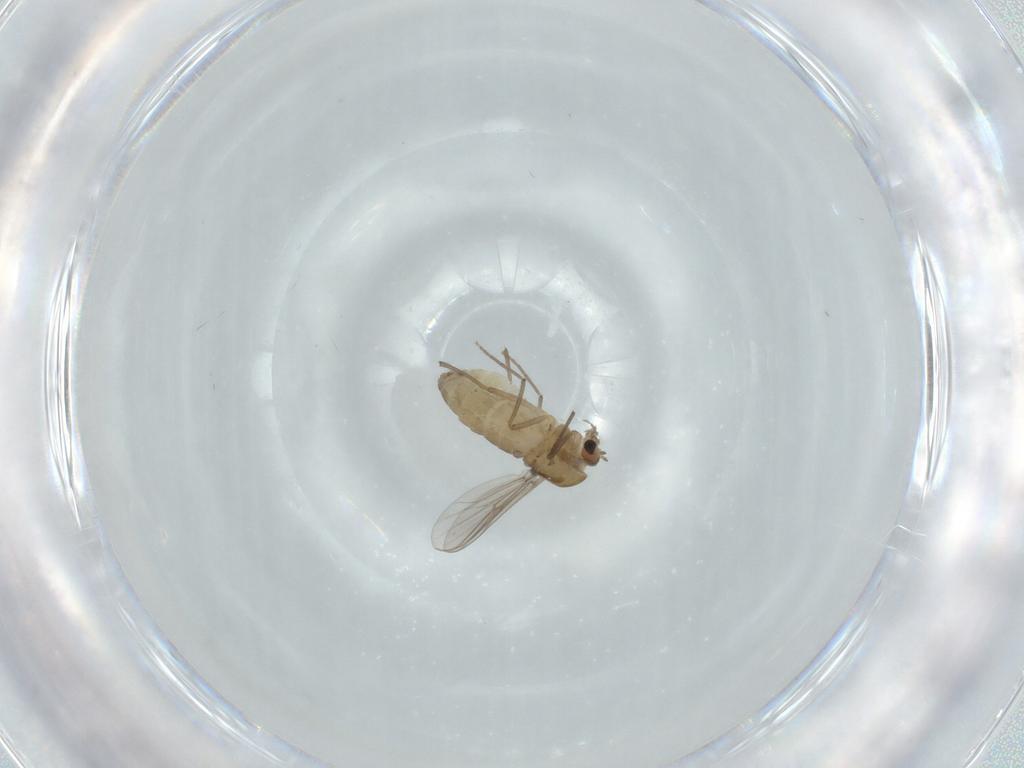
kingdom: Animalia
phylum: Arthropoda
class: Insecta
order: Diptera
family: Chironomidae
